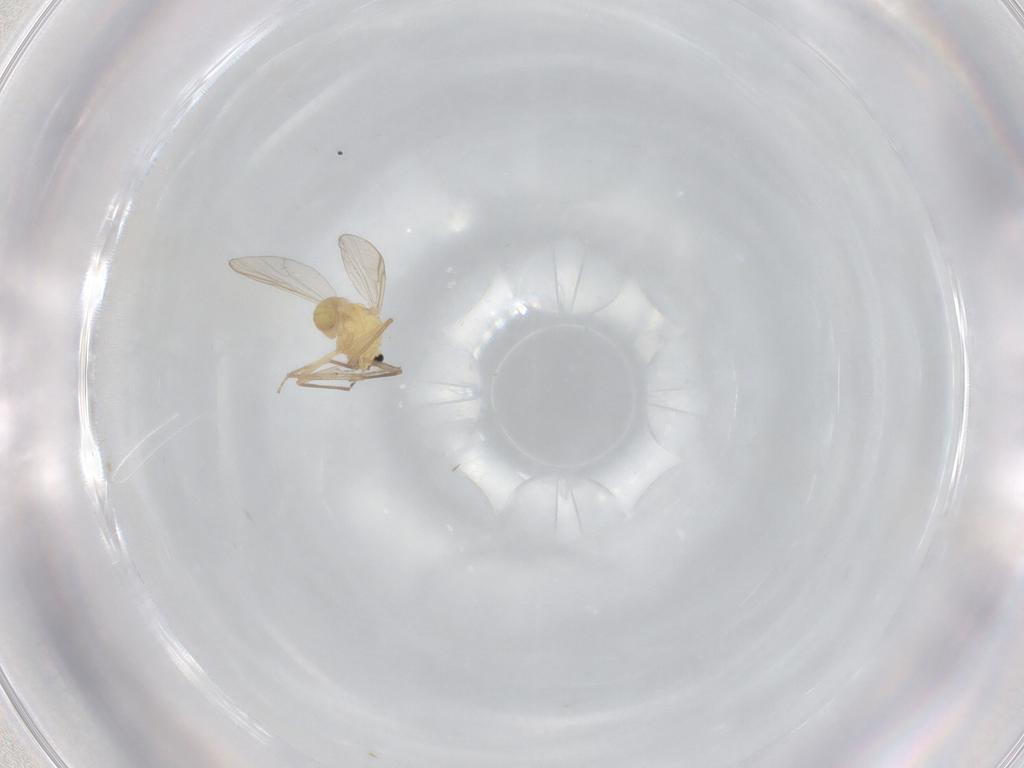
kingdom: Animalia
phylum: Arthropoda
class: Insecta
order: Diptera
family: Chironomidae
